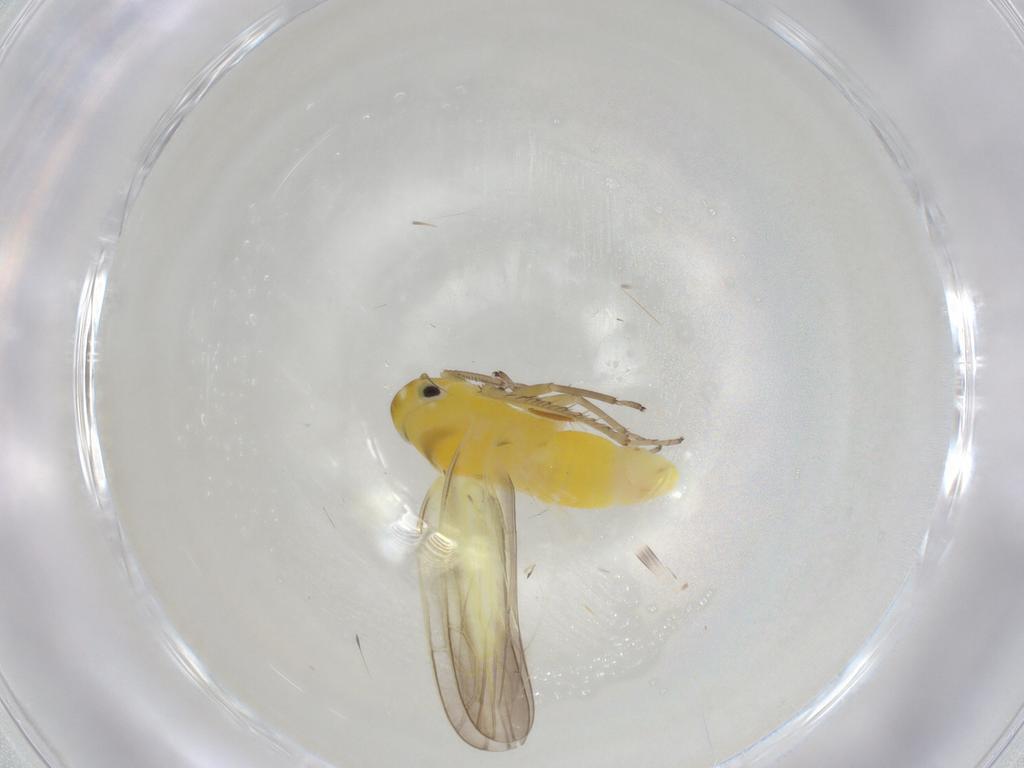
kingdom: Animalia
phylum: Arthropoda
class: Insecta
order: Hemiptera
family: Cicadellidae
